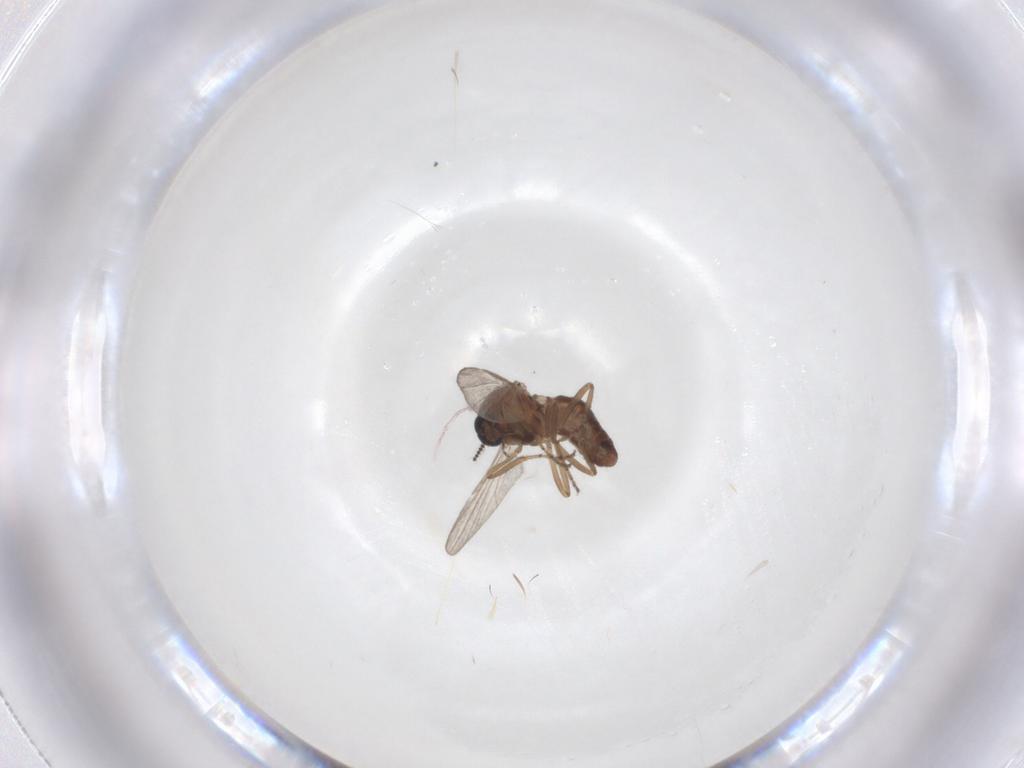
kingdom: Animalia
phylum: Arthropoda
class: Insecta
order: Diptera
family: Ceratopogonidae
